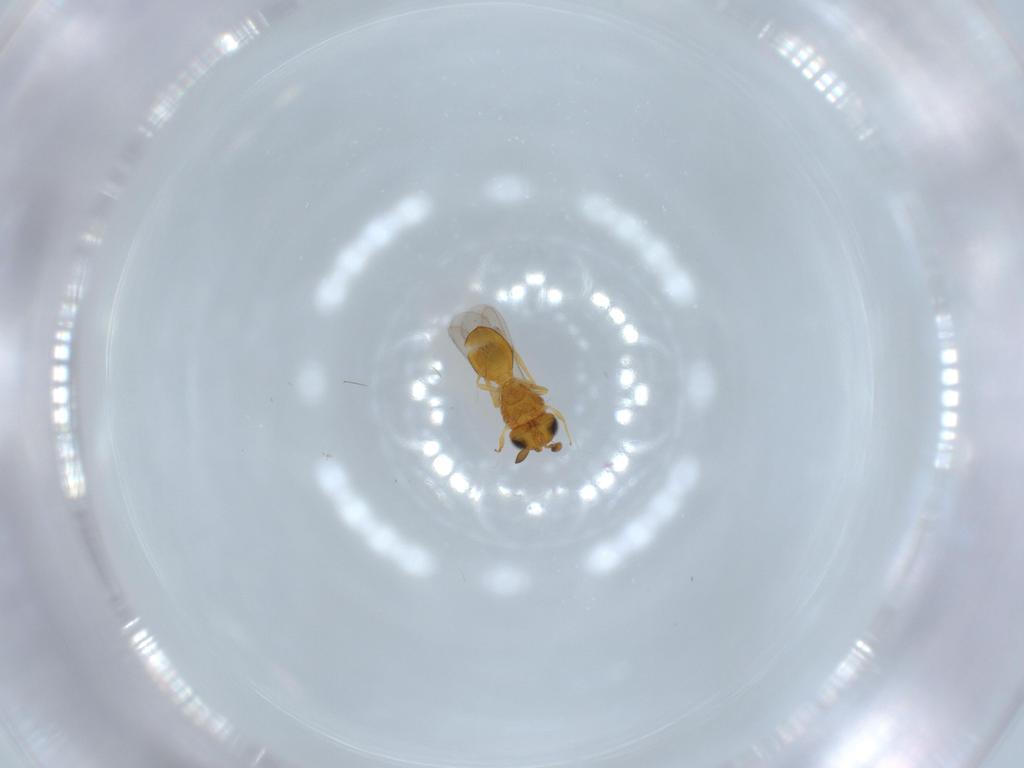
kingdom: Animalia
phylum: Arthropoda
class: Insecta
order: Hymenoptera
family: Scelionidae
